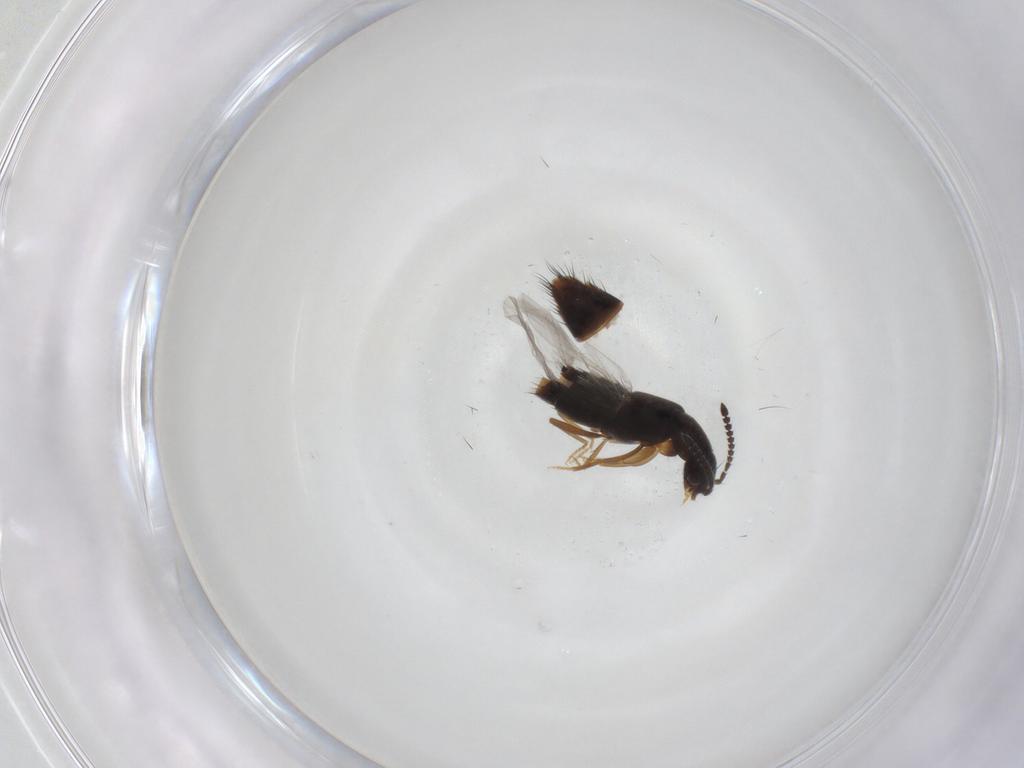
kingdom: Animalia
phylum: Arthropoda
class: Insecta
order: Coleoptera
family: Staphylinidae
